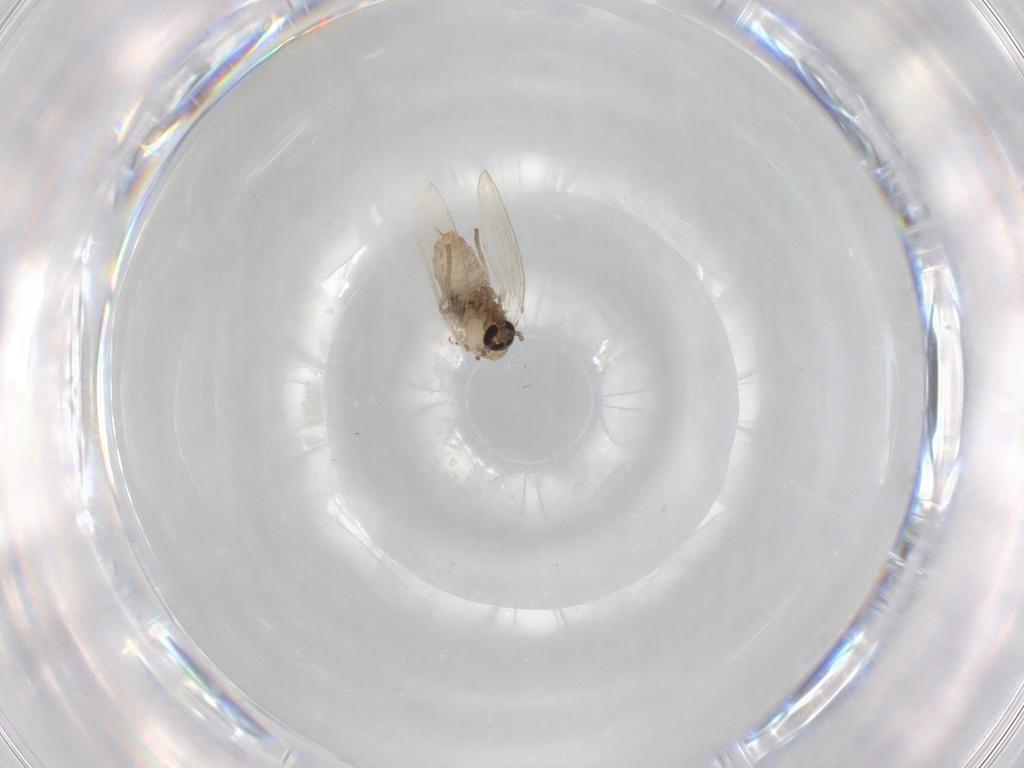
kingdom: Animalia
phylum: Arthropoda
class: Insecta
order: Diptera
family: Psychodidae
